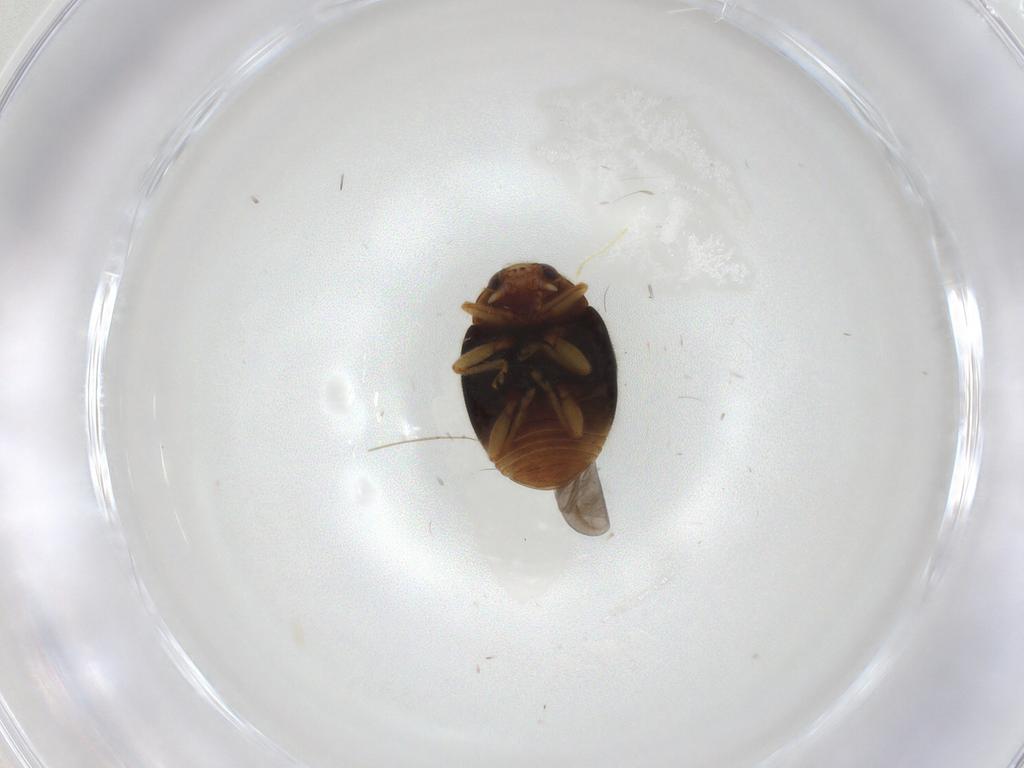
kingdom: Animalia
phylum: Arthropoda
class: Insecta
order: Coleoptera
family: Coccinellidae
